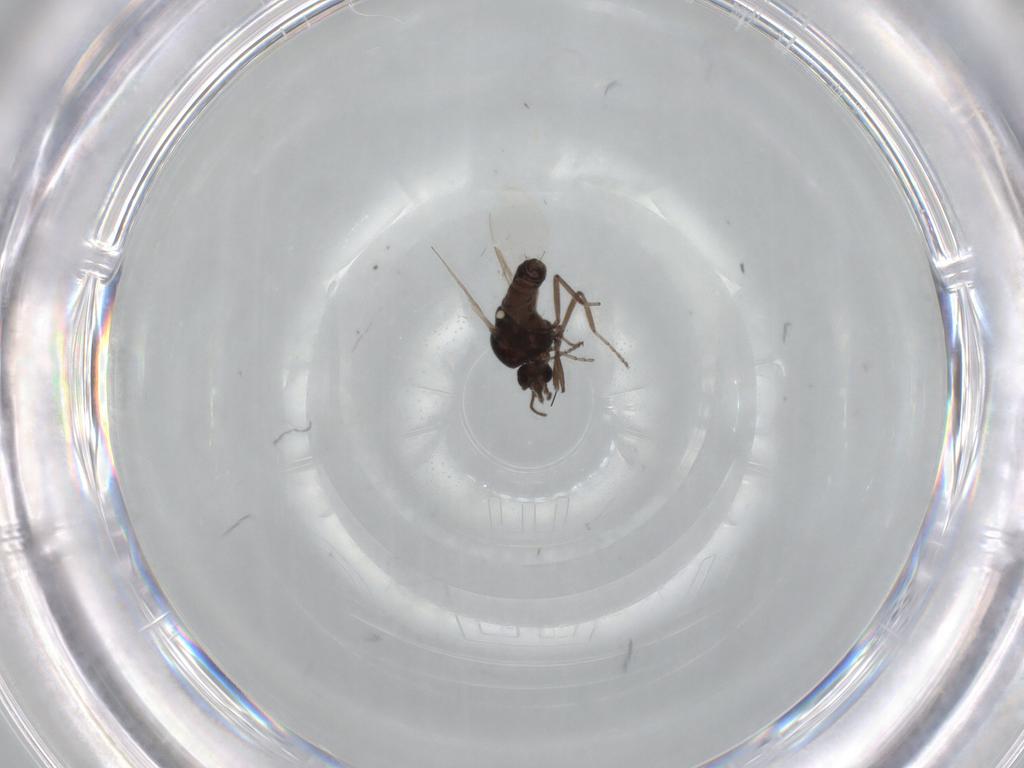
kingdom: Animalia
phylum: Arthropoda
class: Insecta
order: Diptera
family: Ceratopogonidae
